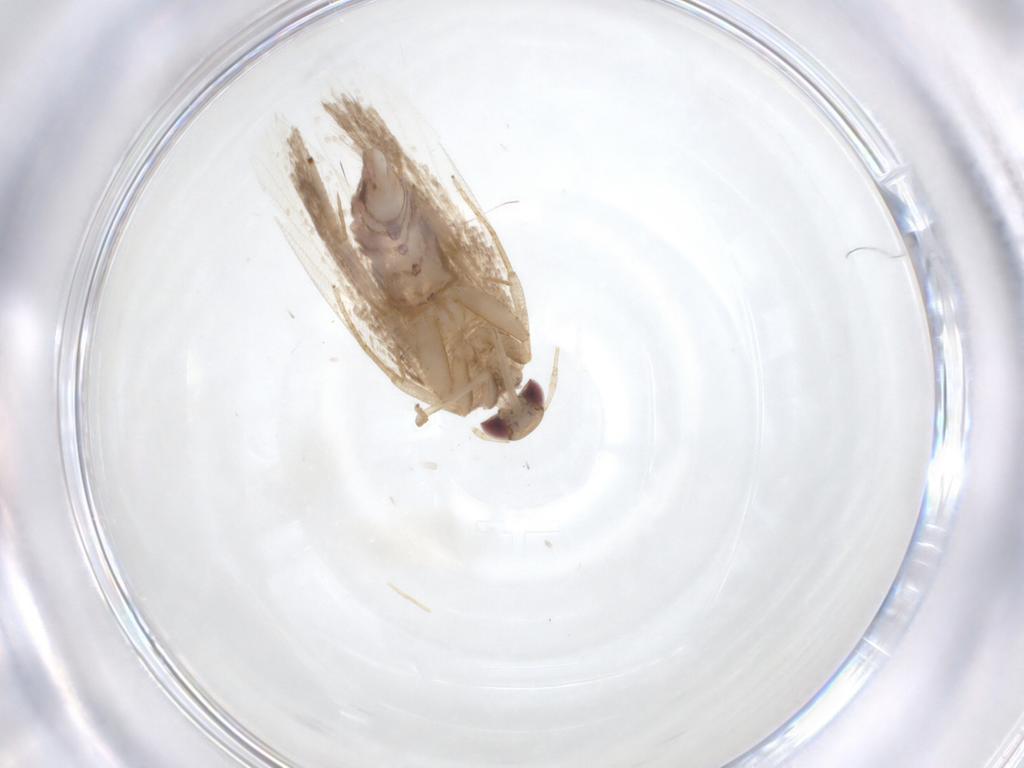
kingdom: Animalia
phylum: Arthropoda
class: Insecta
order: Lepidoptera
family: Gelechiidae
